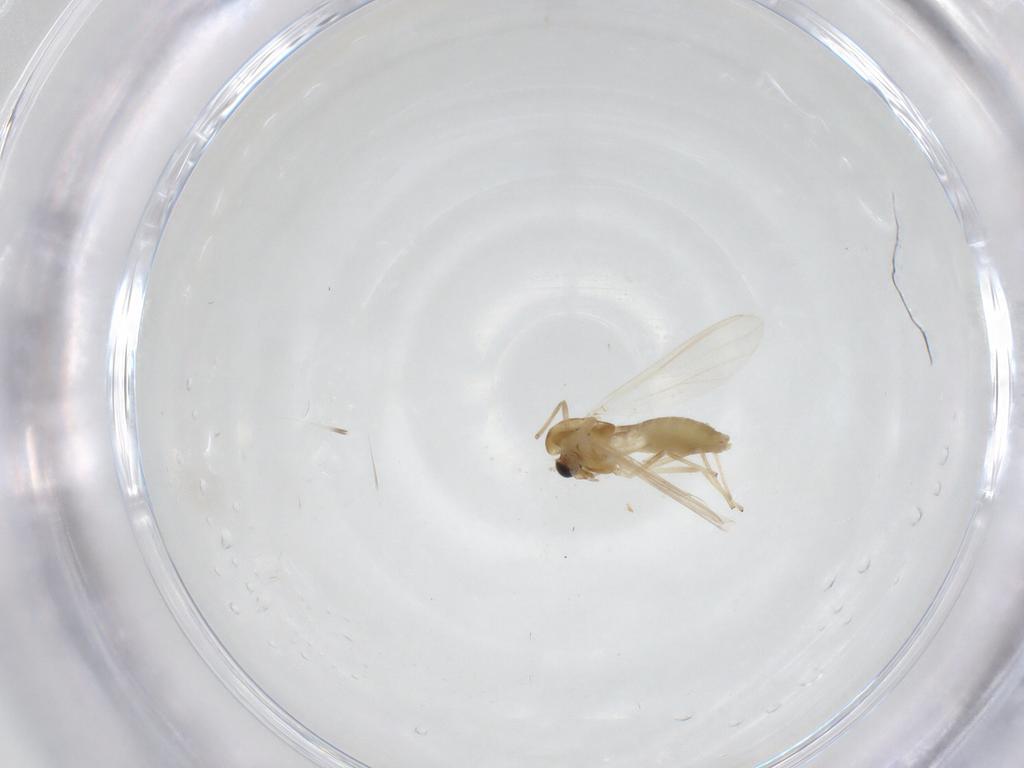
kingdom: Animalia
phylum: Arthropoda
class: Insecta
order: Diptera
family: Chironomidae
